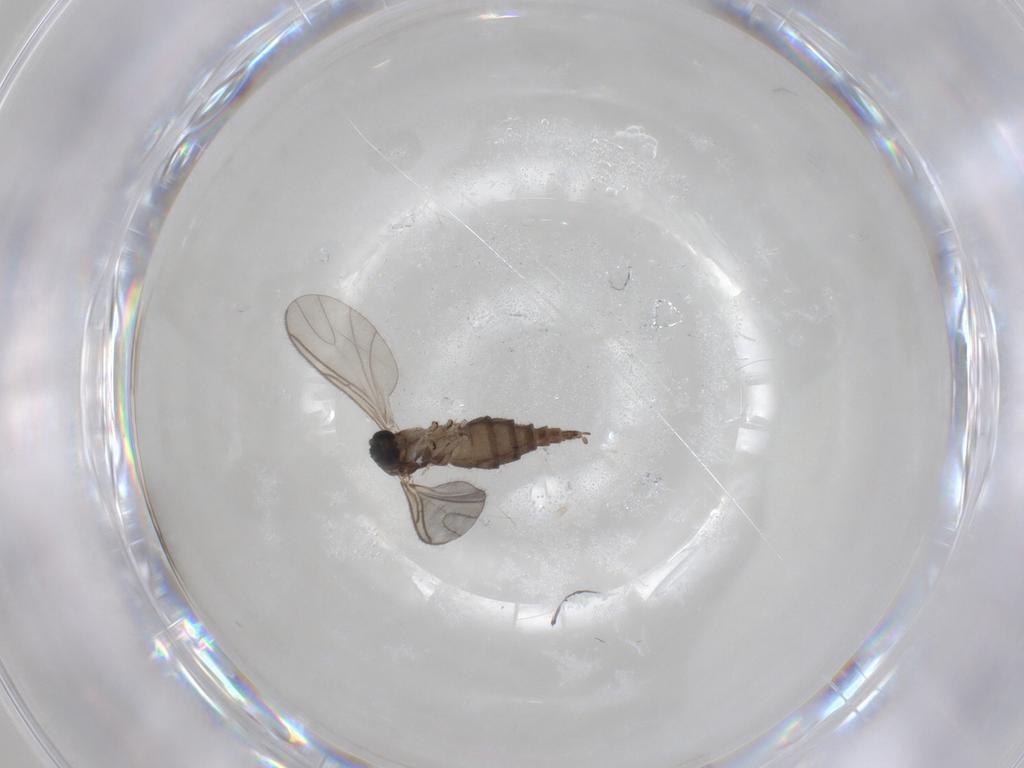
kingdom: Animalia
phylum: Arthropoda
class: Insecta
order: Diptera
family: Sciaridae
